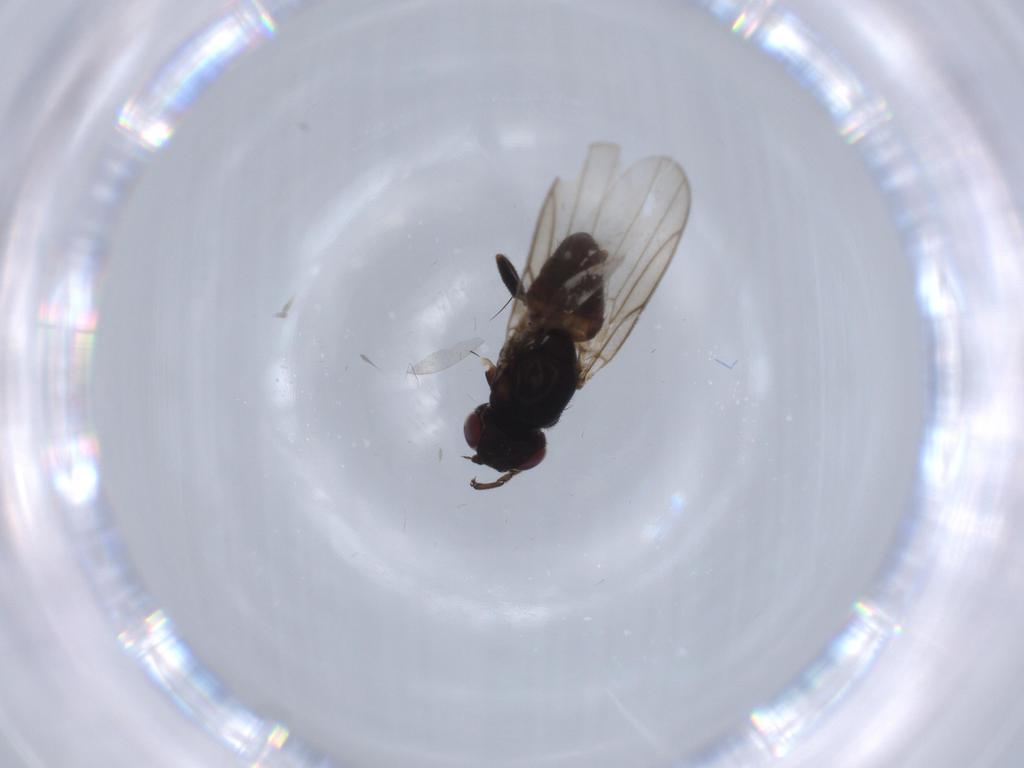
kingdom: Animalia
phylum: Arthropoda
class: Insecta
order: Diptera
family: Chloropidae
